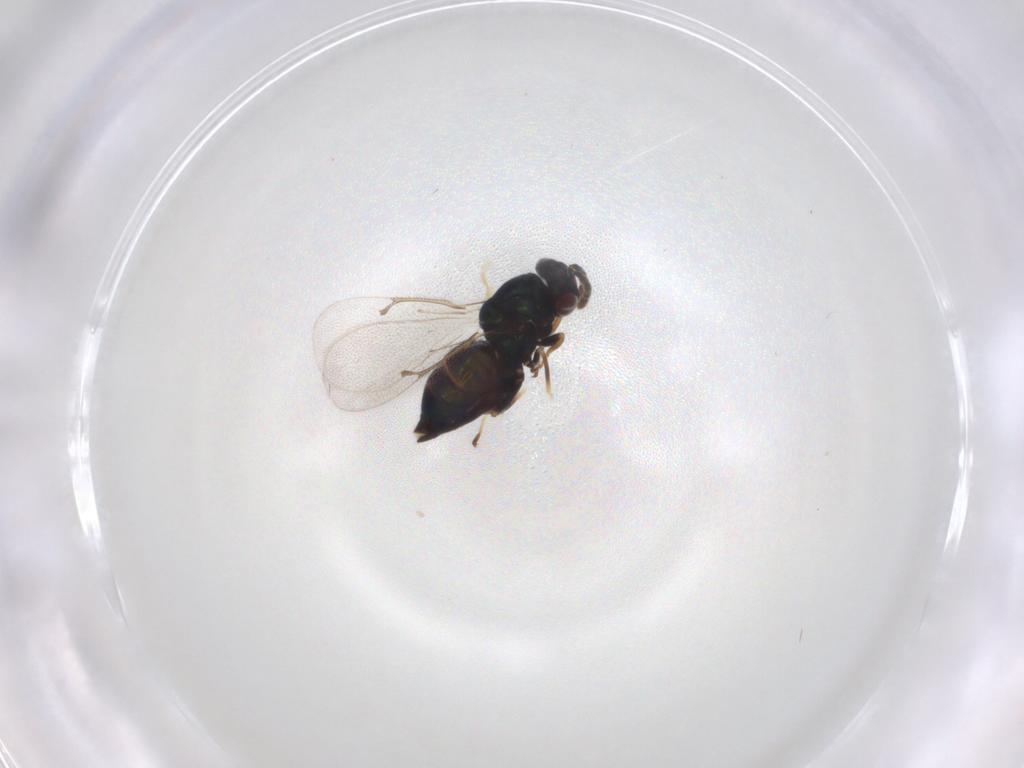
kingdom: Animalia
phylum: Arthropoda
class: Insecta
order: Hymenoptera
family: Eulophidae
